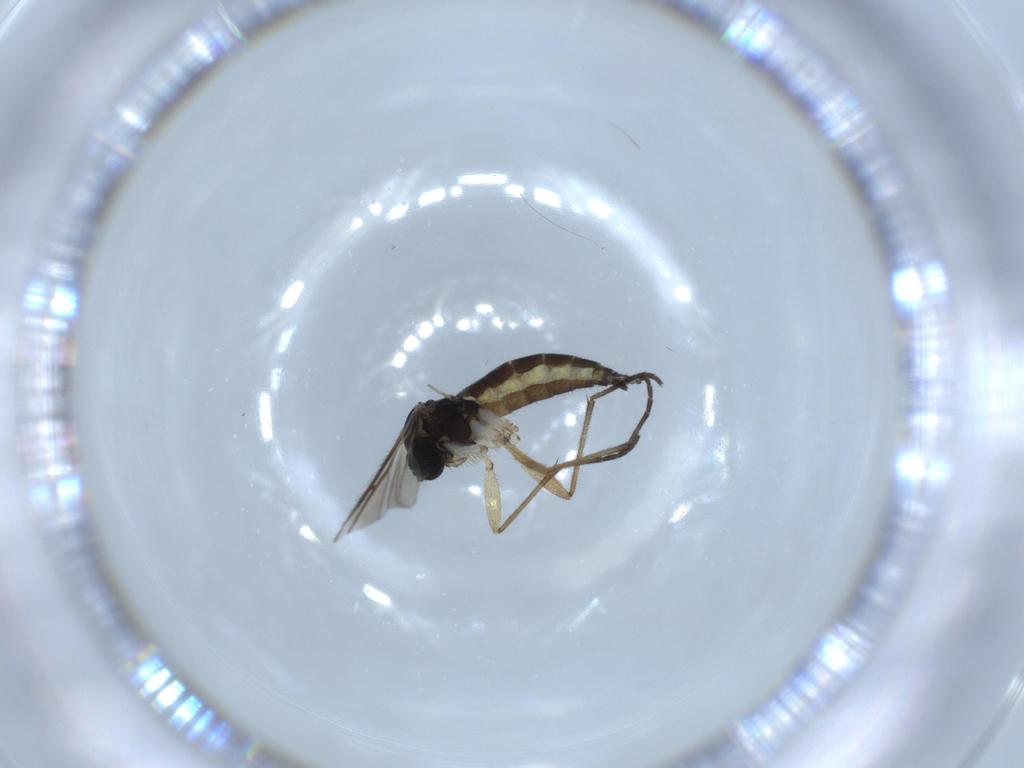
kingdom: Animalia
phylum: Arthropoda
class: Insecta
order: Diptera
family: Sciaridae
